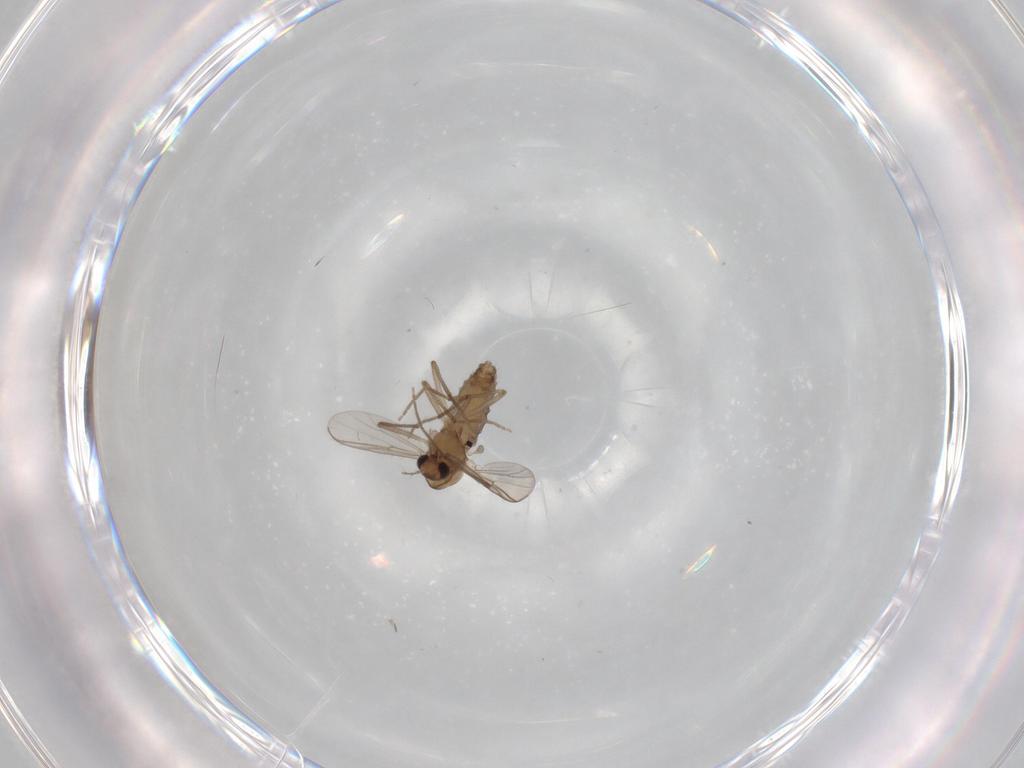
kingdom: Animalia
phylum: Arthropoda
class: Insecta
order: Diptera
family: Chironomidae
